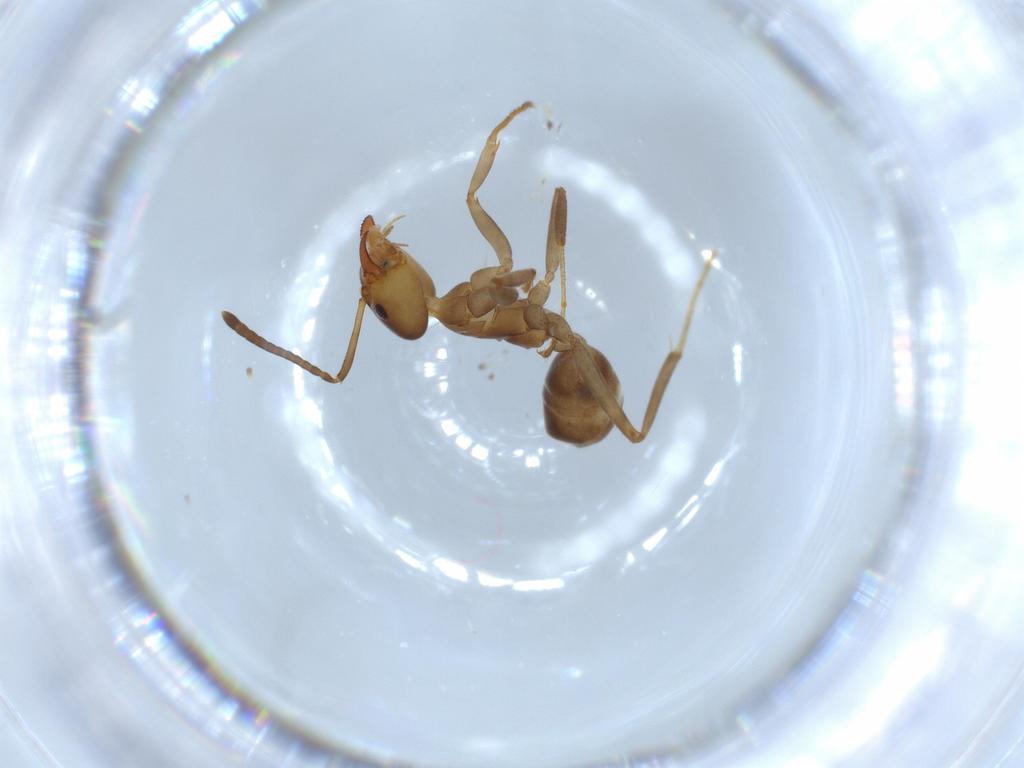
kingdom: Animalia
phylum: Arthropoda
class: Insecta
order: Hymenoptera
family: Formicidae
